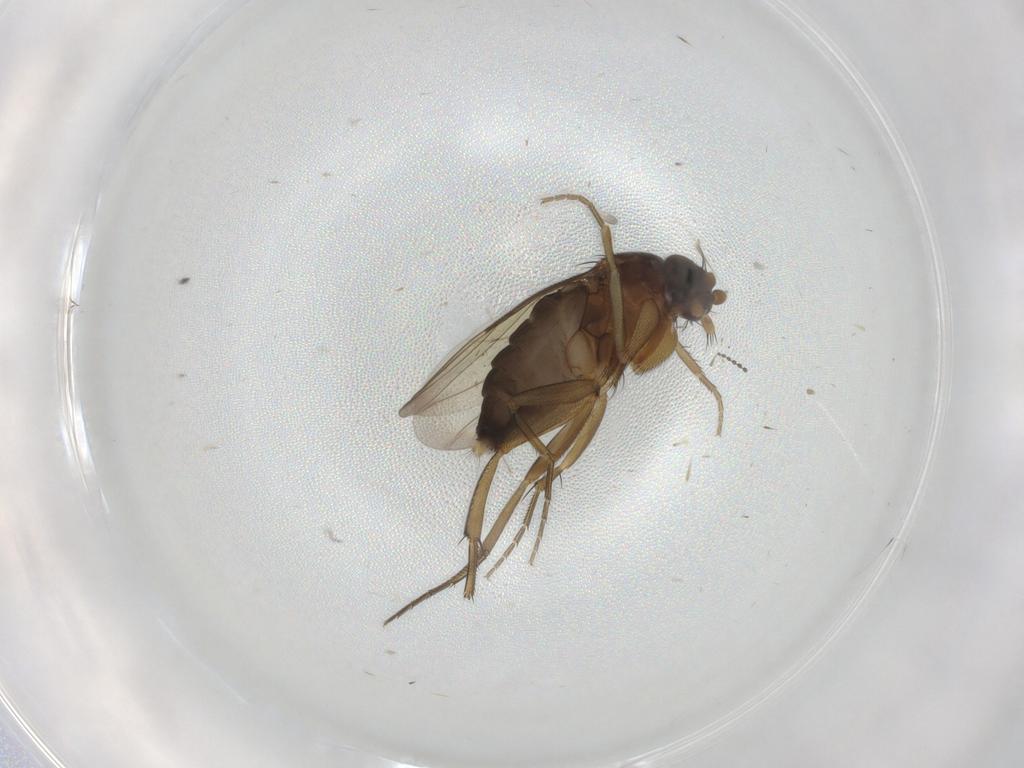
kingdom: Animalia
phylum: Arthropoda
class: Insecta
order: Diptera
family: Phoridae
